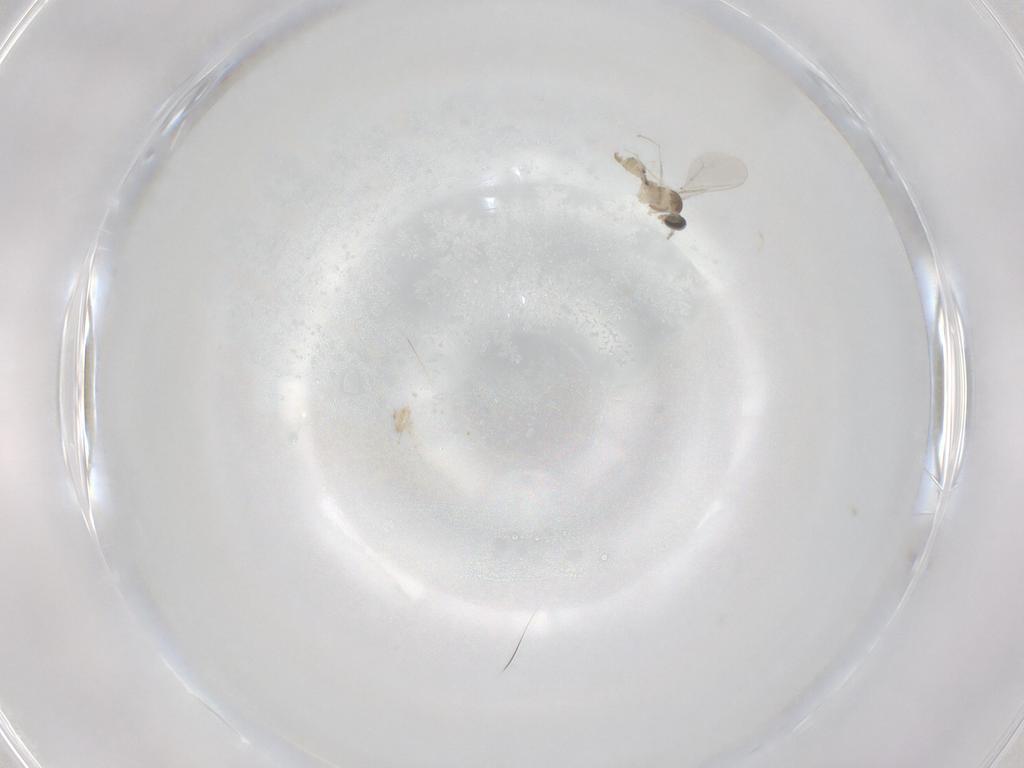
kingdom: Animalia
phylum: Arthropoda
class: Insecta
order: Diptera
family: Cecidomyiidae
